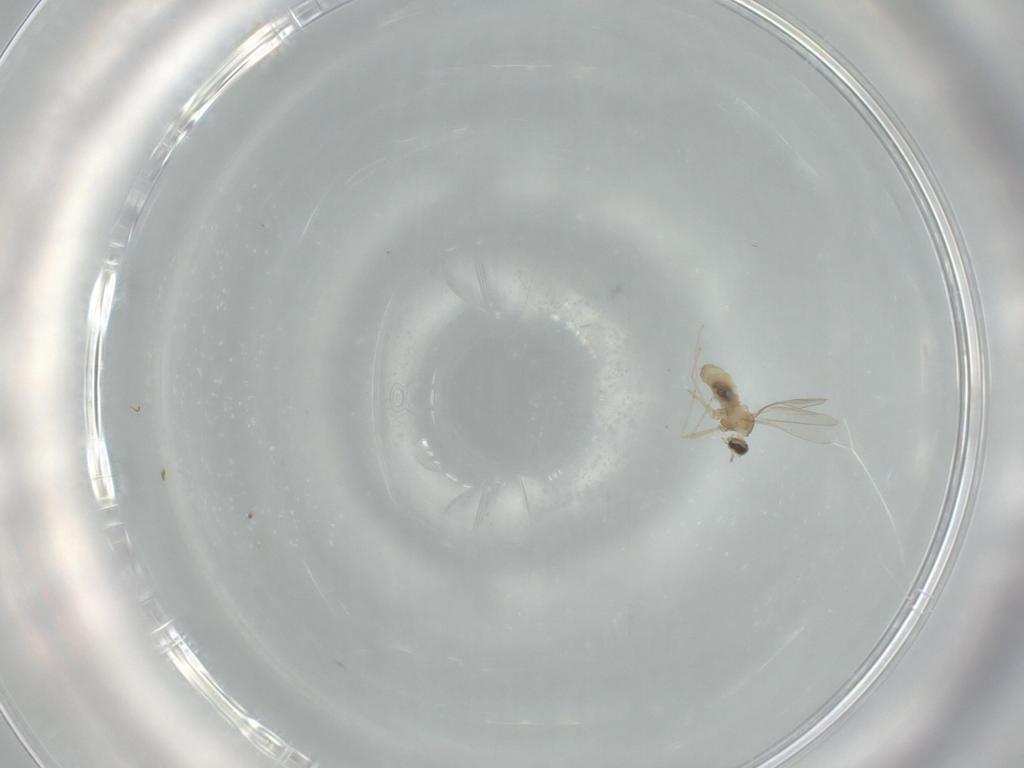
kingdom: Animalia
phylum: Arthropoda
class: Insecta
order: Diptera
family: Cecidomyiidae
